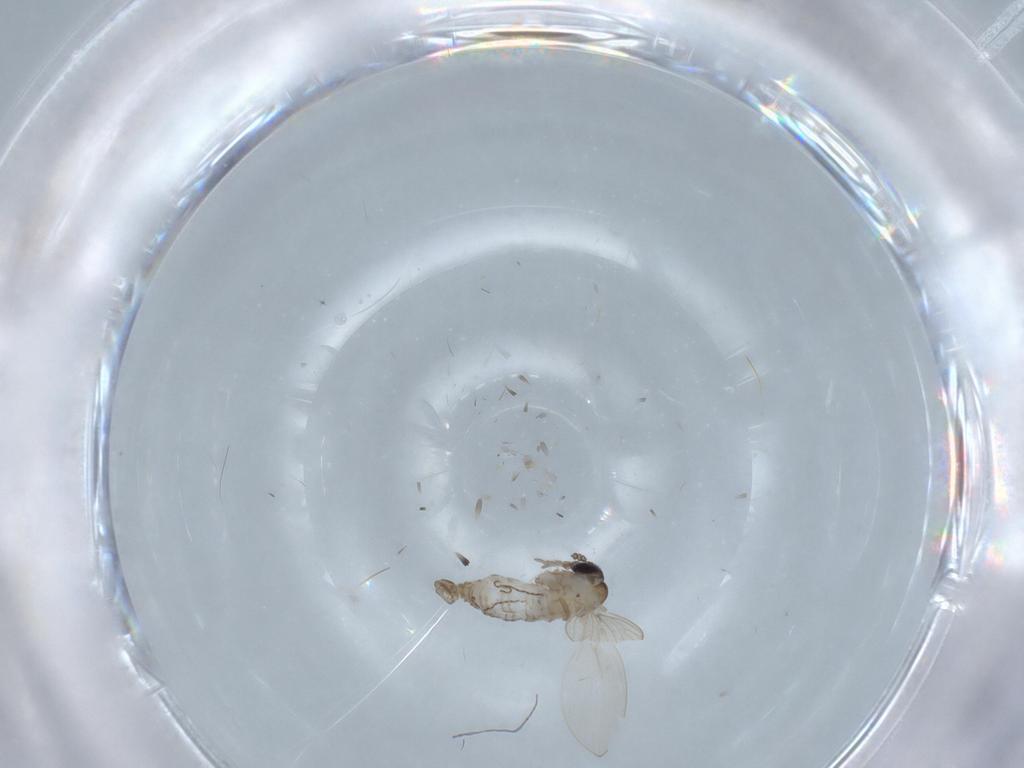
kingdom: Animalia
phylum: Arthropoda
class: Insecta
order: Diptera
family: Psychodidae
